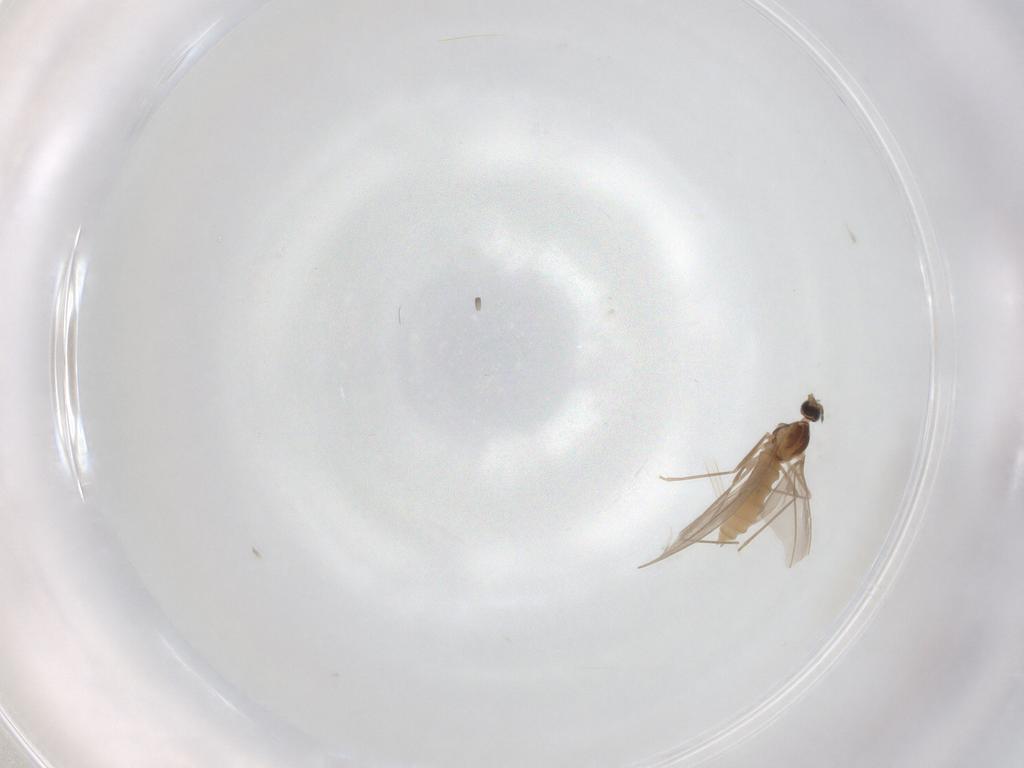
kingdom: Animalia
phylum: Arthropoda
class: Insecta
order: Diptera
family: Cecidomyiidae
